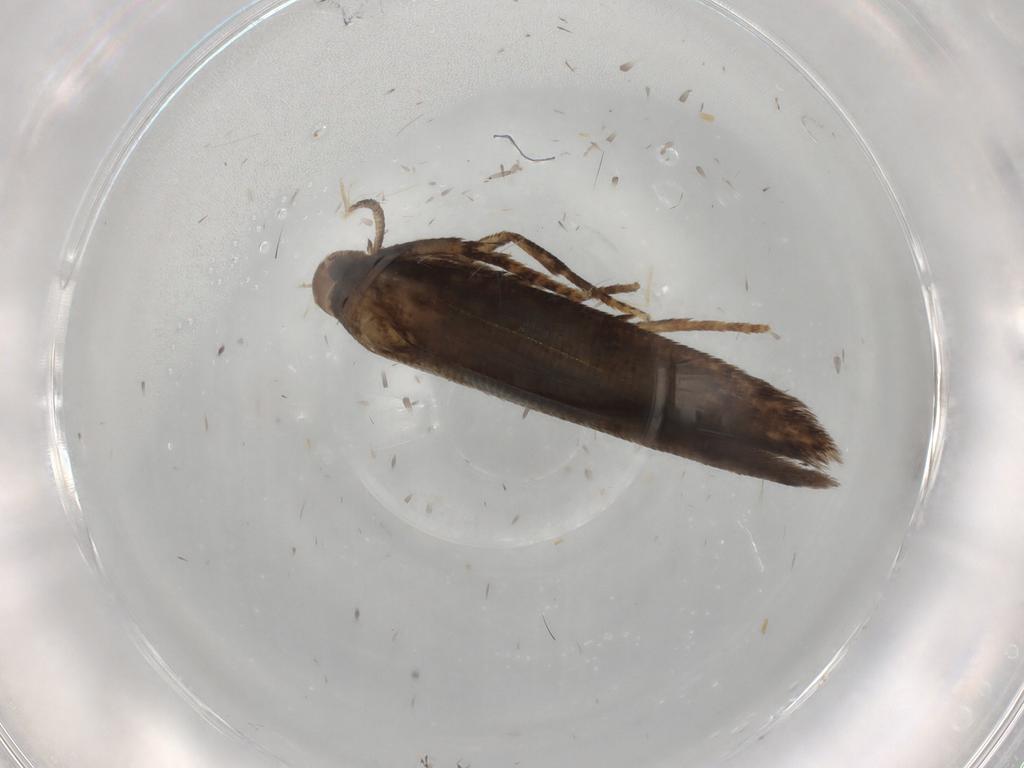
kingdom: Animalia
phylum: Arthropoda
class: Insecta
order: Lepidoptera
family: Cosmopterigidae
